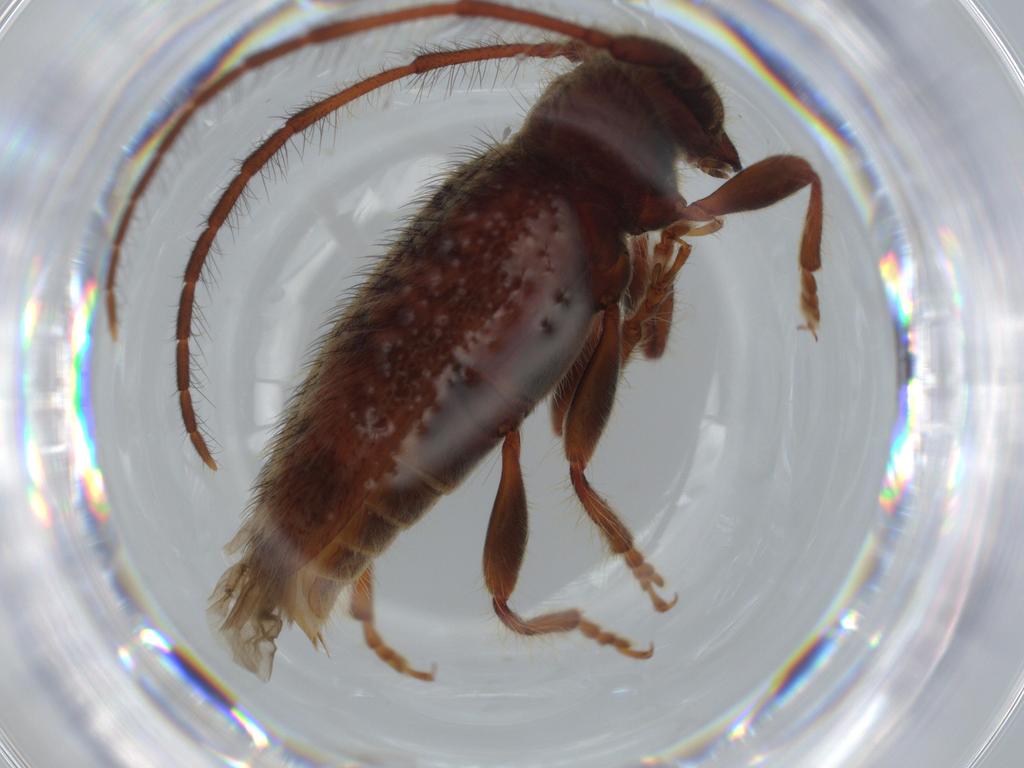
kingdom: Animalia
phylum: Arthropoda
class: Insecta
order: Coleoptera
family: Cerambycidae
